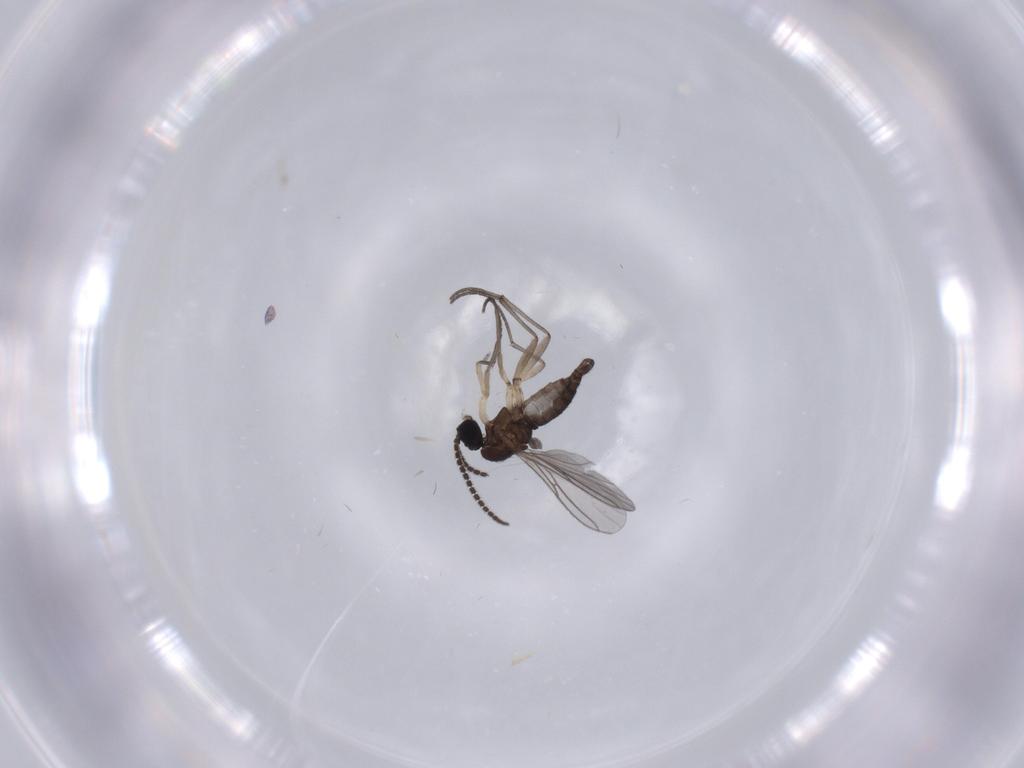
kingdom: Animalia
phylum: Arthropoda
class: Insecta
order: Diptera
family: Sciaridae
